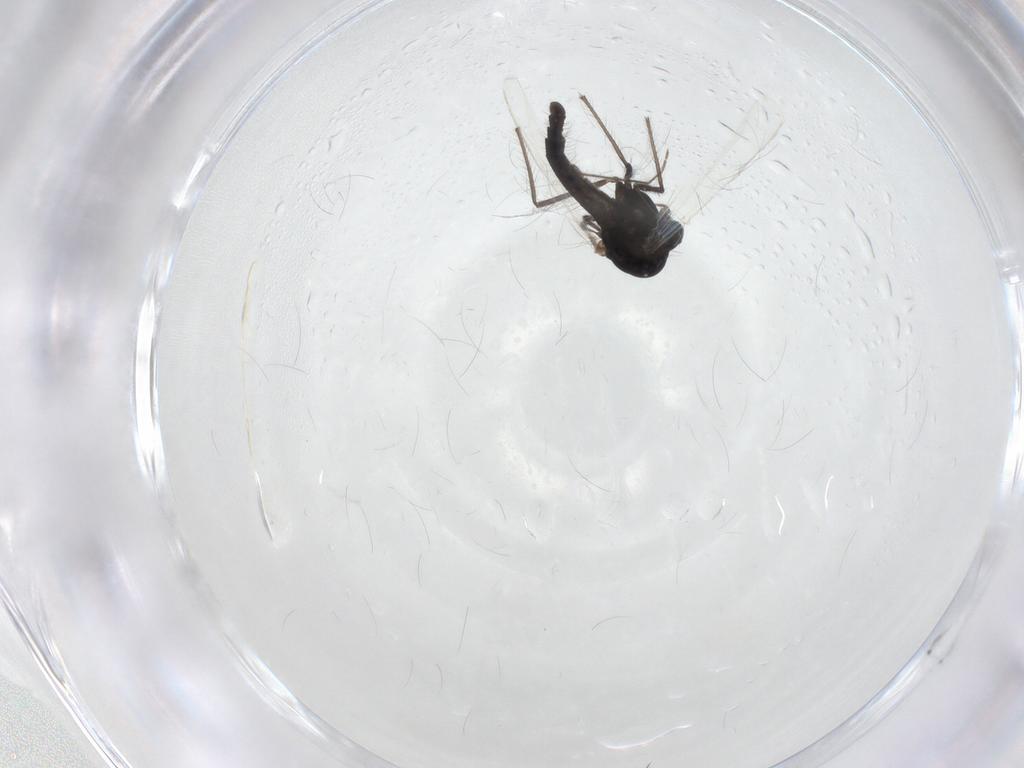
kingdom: Animalia
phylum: Arthropoda
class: Insecta
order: Diptera
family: Chironomidae
